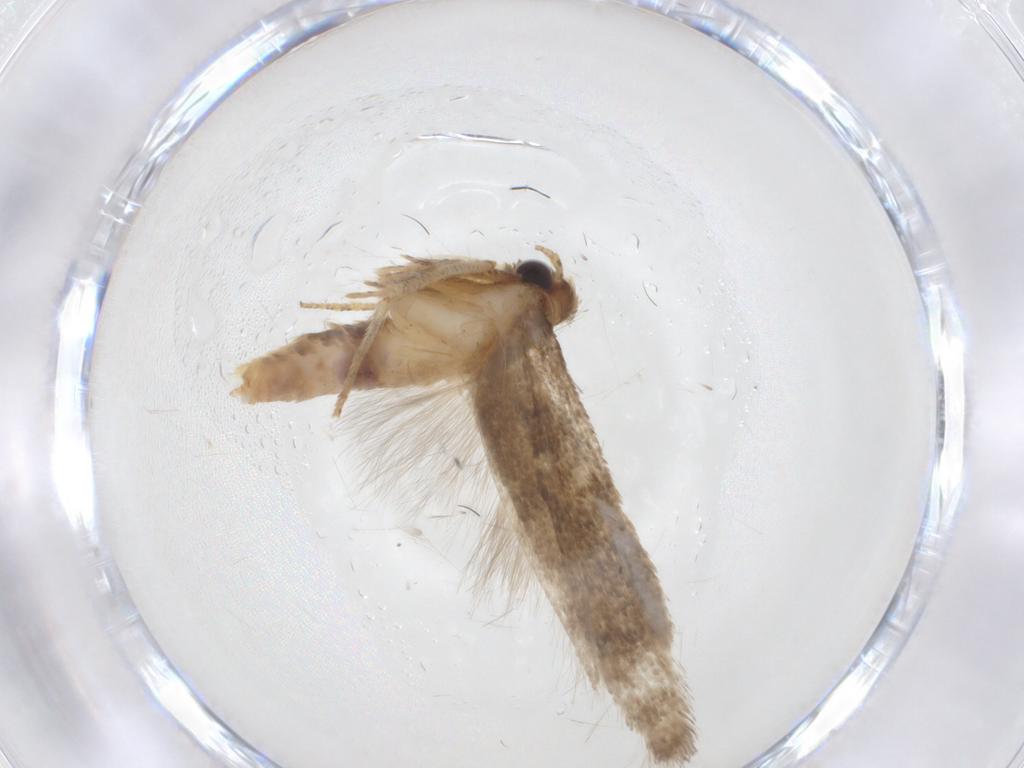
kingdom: Animalia
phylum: Arthropoda
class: Insecta
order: Lepidoptera
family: Blastobasidae
